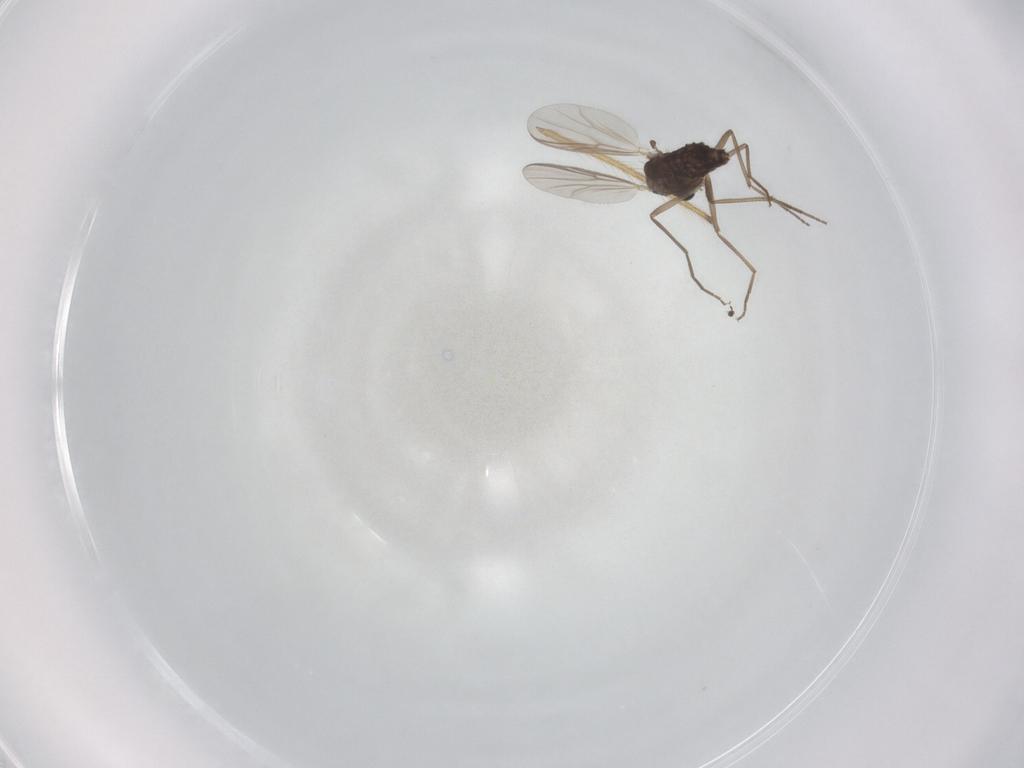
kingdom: Animalia
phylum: Arthropoda
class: Insecta
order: Diptera
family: Chironomidae
